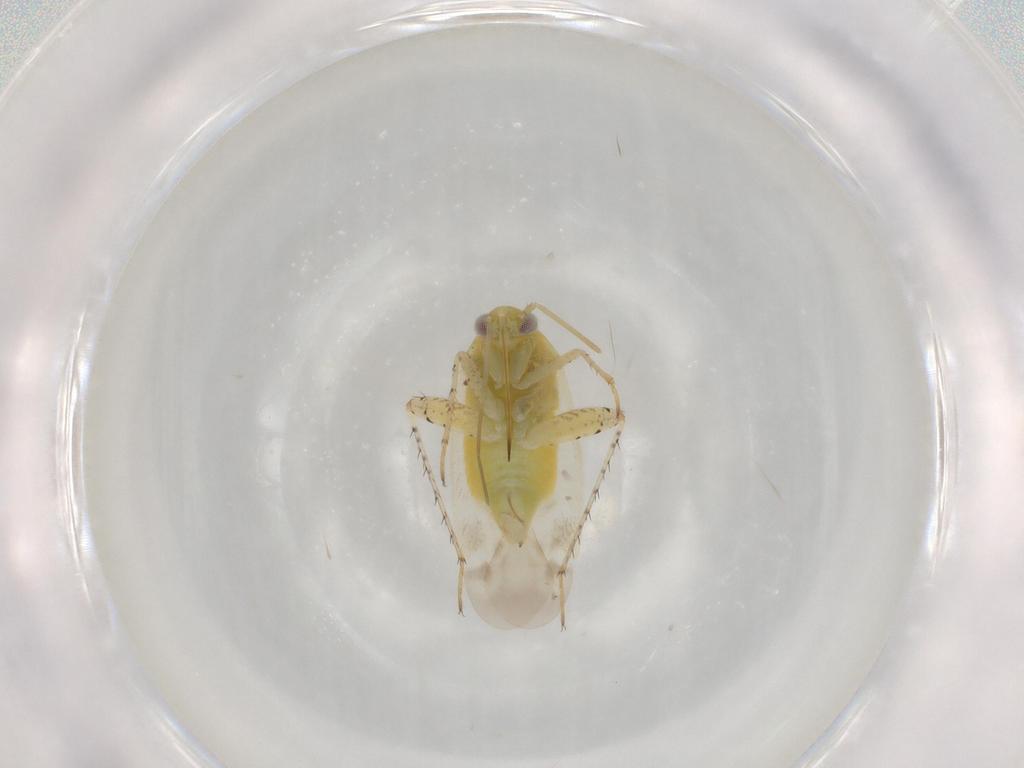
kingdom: Animalia
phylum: Arthropoda
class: Insecta
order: Hemiptera
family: Miridae
